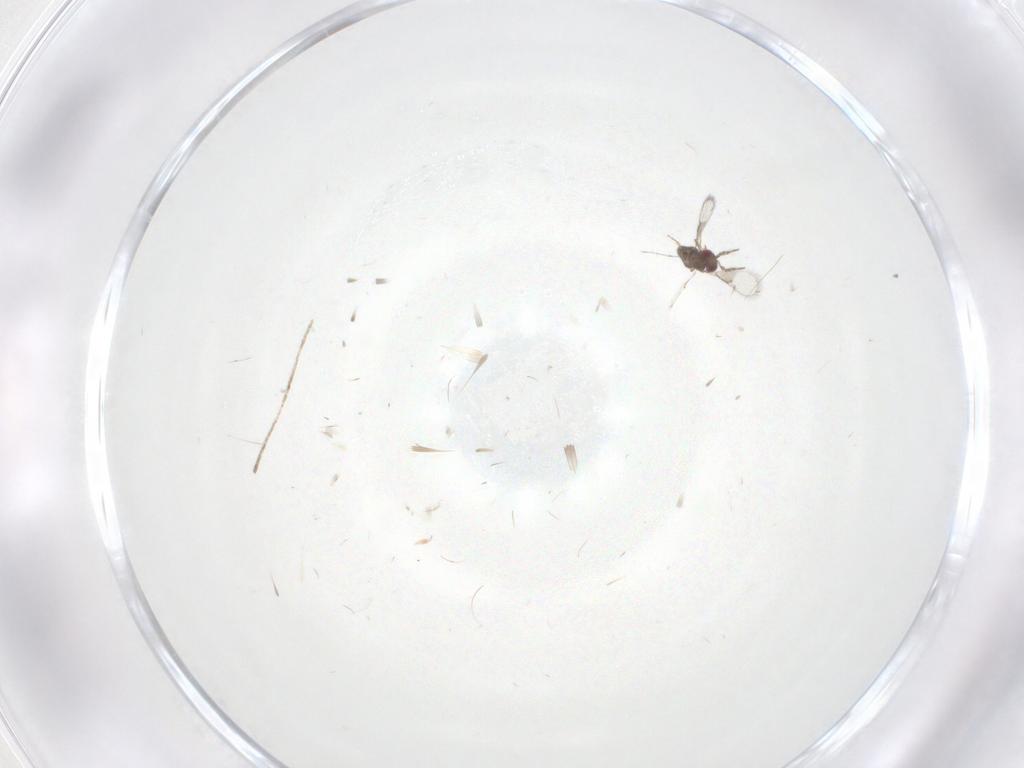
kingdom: Animalia
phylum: Arthropoda
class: Insecta
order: Hymenoptera
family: Trichogrammatidae
